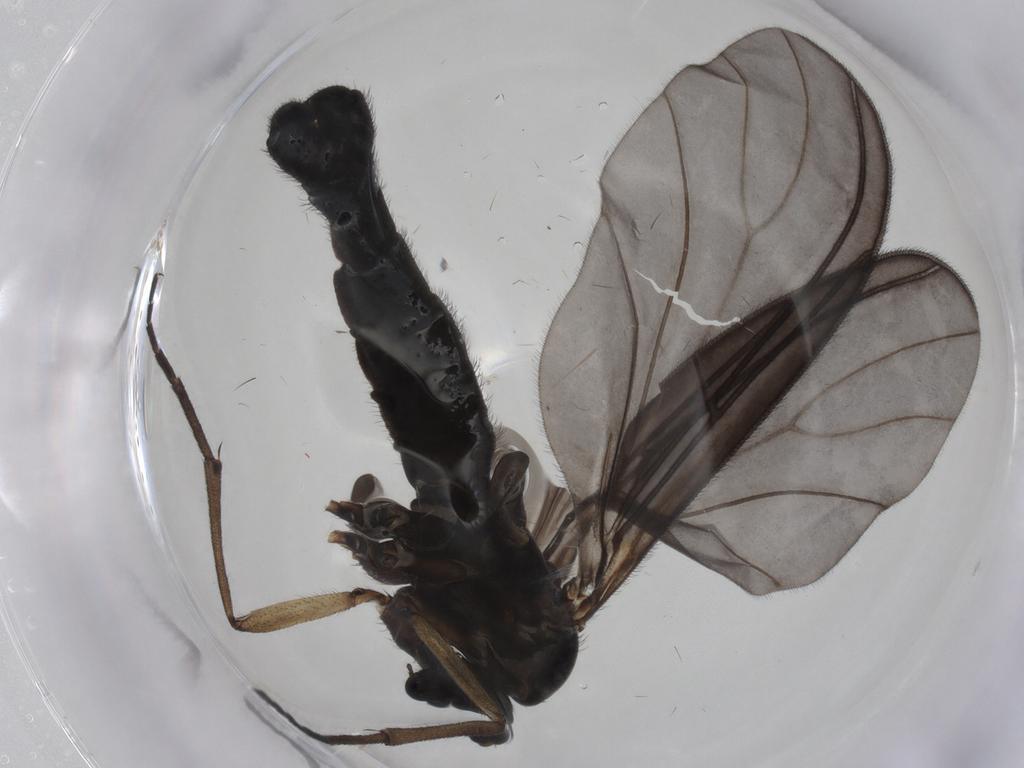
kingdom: Animalia
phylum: Arthropoda
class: Insecta
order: Diptera
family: Sciaridae
